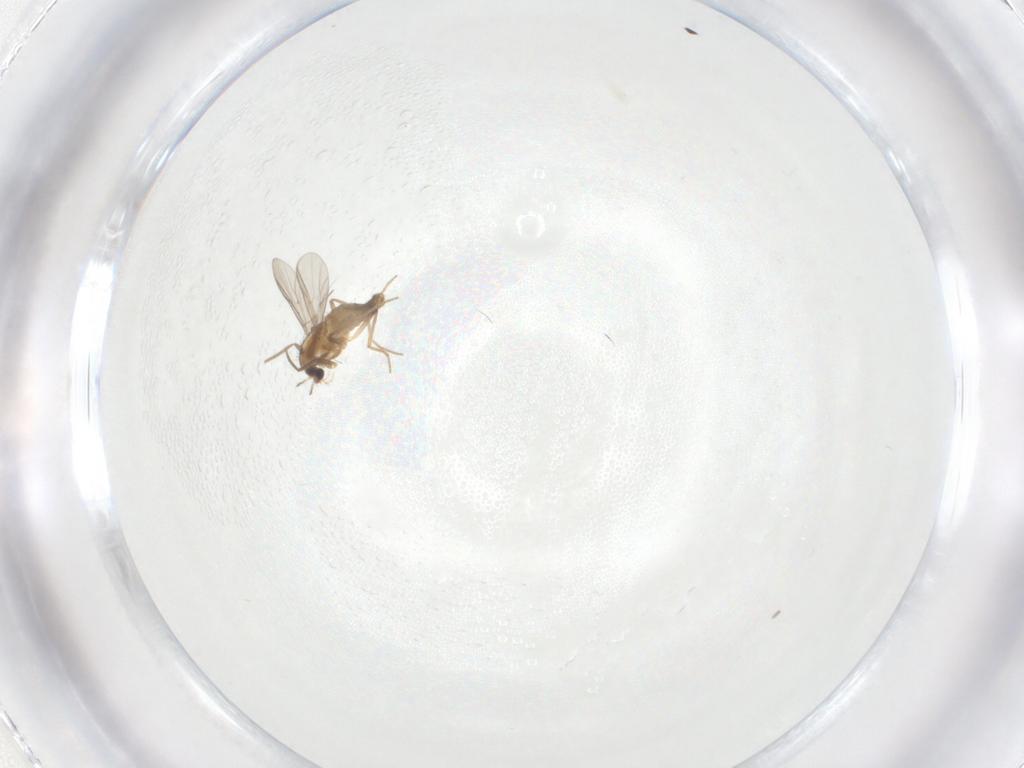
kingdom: Animalia
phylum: Arthropoda
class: Insecta
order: Diptera
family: Chironomidae
